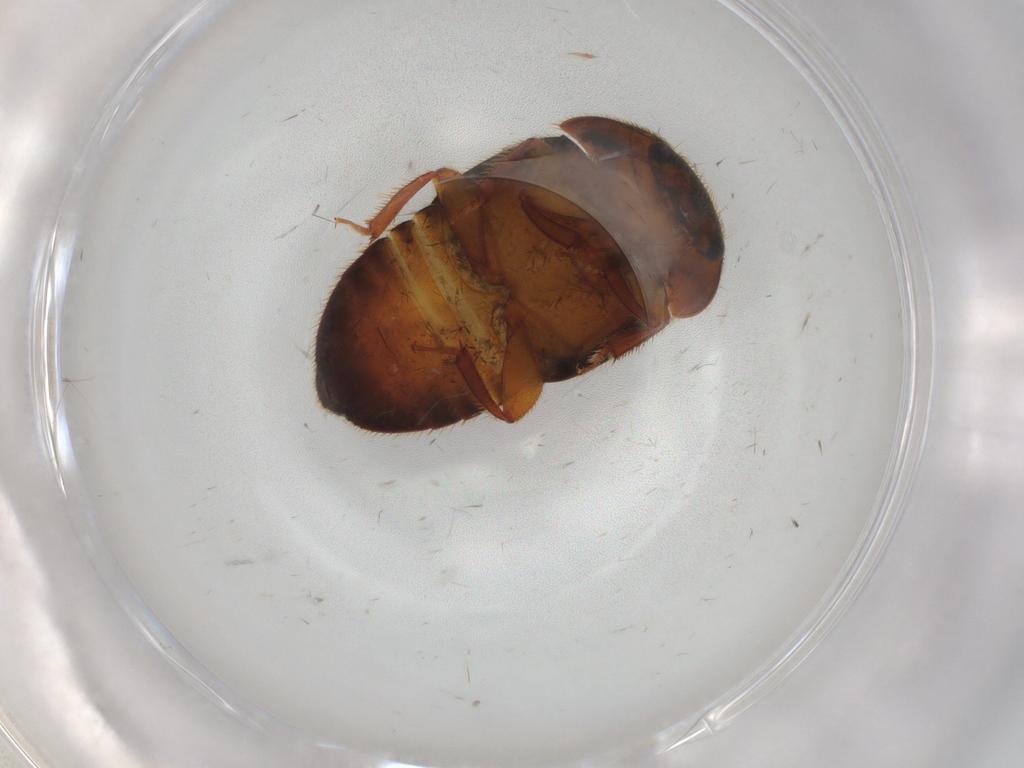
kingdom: Animalia
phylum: Arthropoda
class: Insecta
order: Coleoptera
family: Nitidulidae
